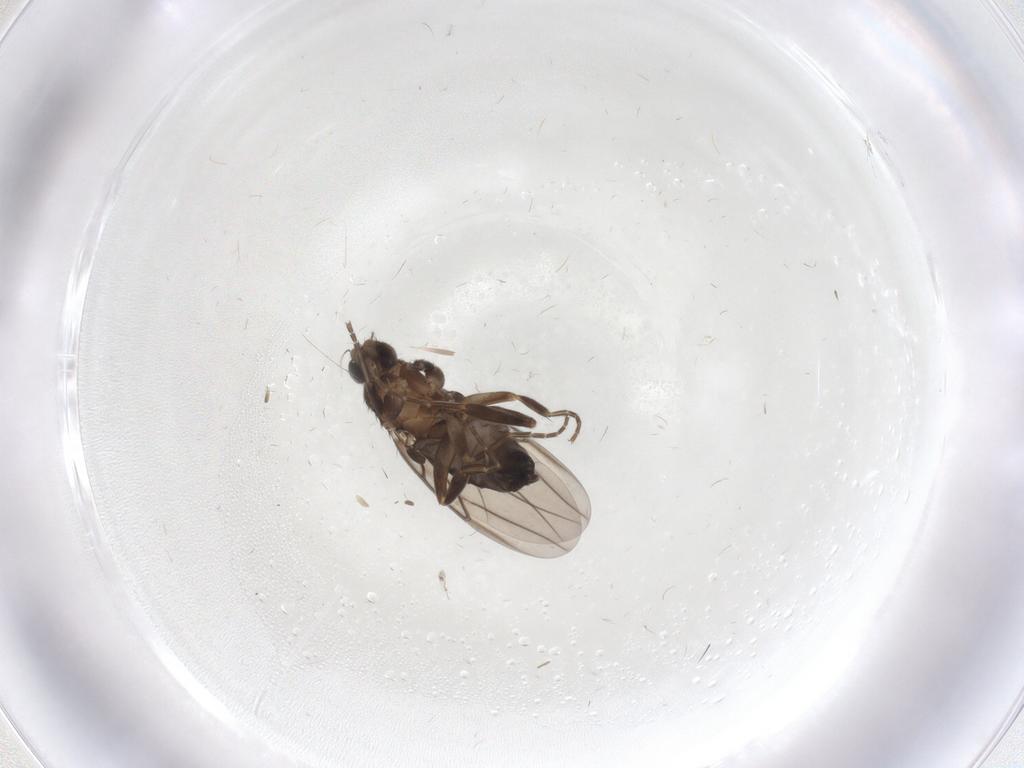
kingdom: Animalia
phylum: Arthropoda
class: Insecta
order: Diptera
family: Phoridae
